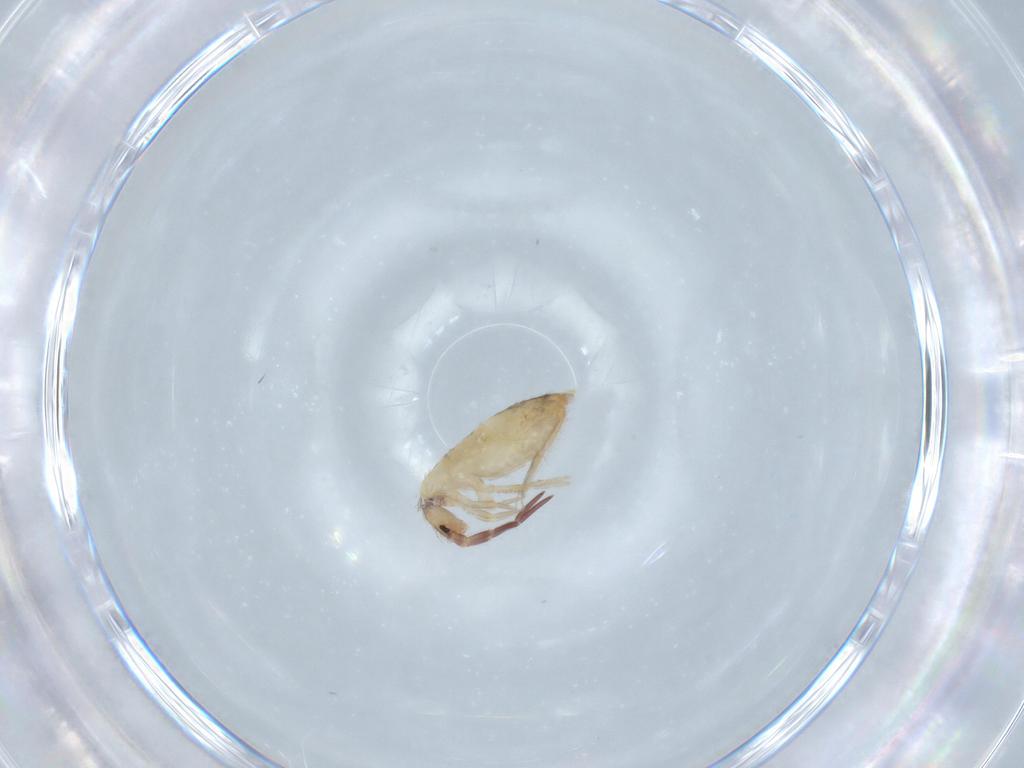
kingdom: Animalia
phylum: Arthropoda
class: Collembola
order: Entomobryomorpha
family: Entomobryidae
